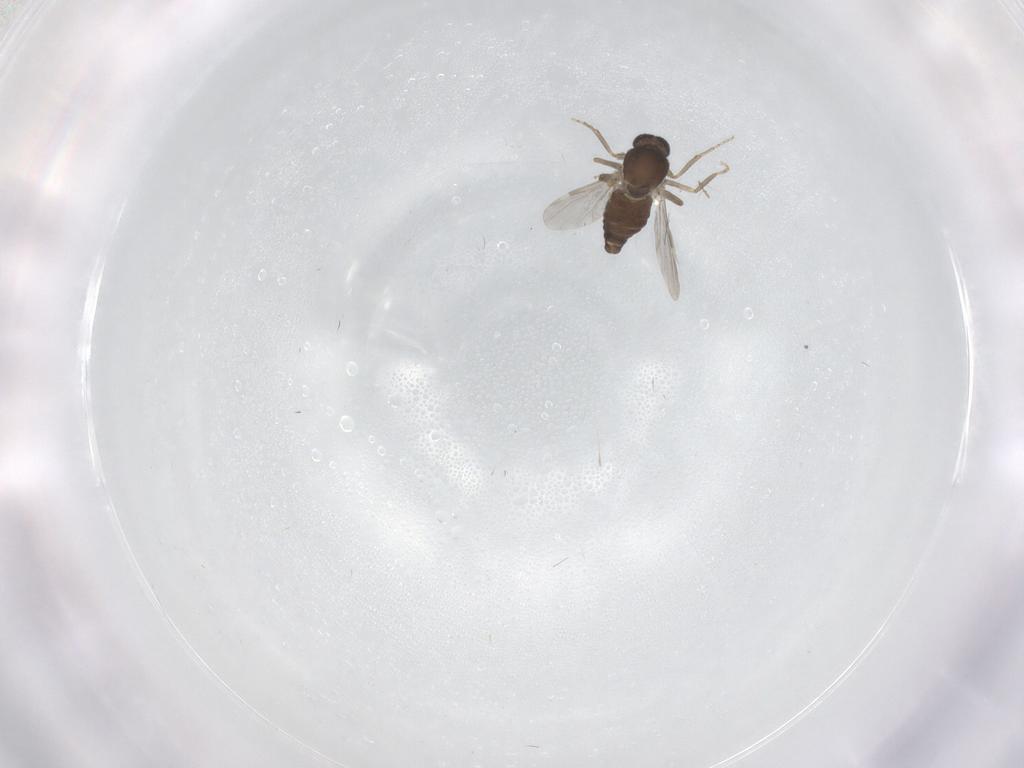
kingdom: Animalia
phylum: Arthropoda
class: Insecta
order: Diptera
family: Ceratopogonidae
